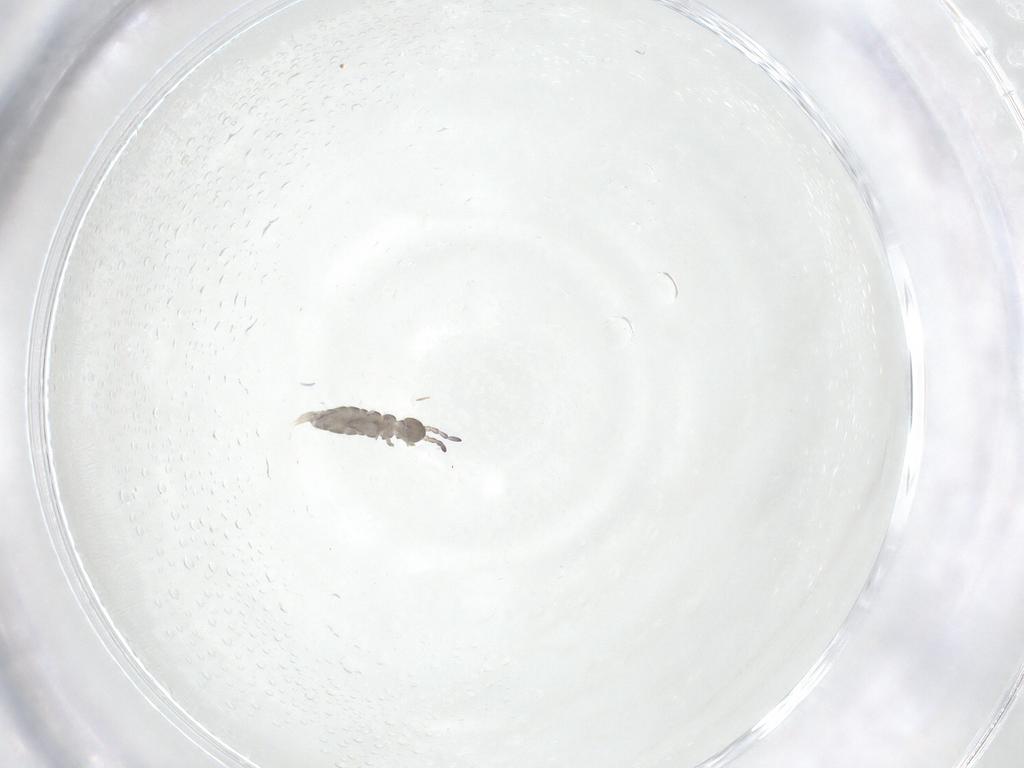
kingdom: Animalia
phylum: Arthropoda
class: Collembola
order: Entomobryomorpha
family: Isotomidae
